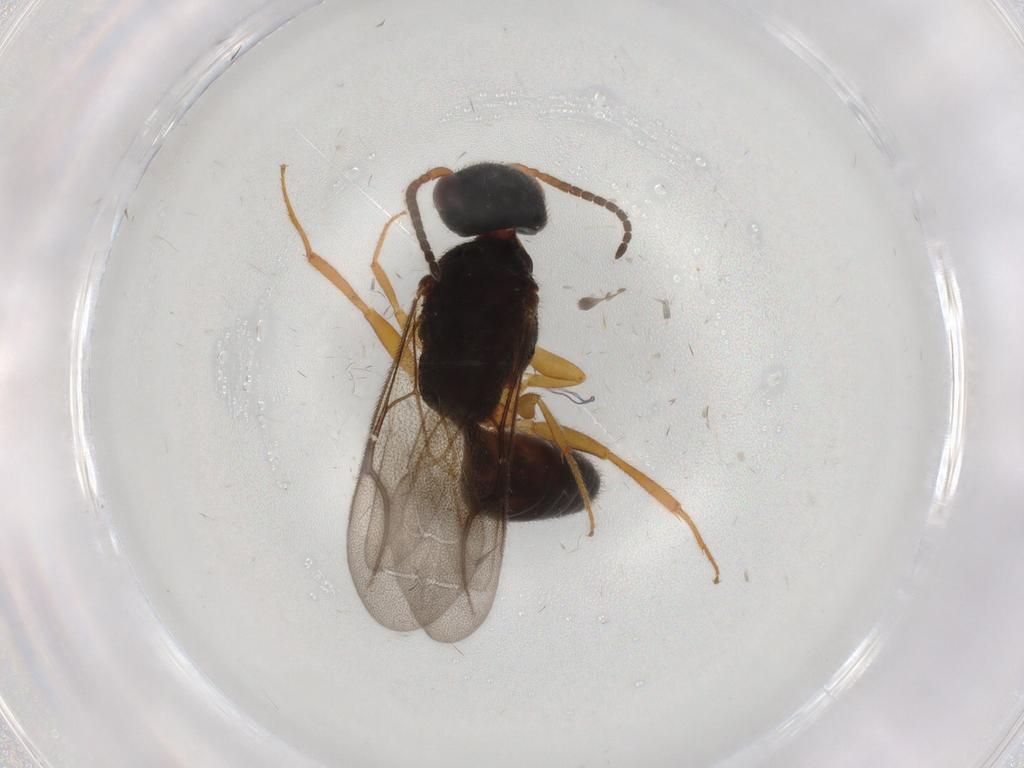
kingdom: Animalia
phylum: Arthropoda
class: Insecta
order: Hymenoptera
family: Bethylidae
